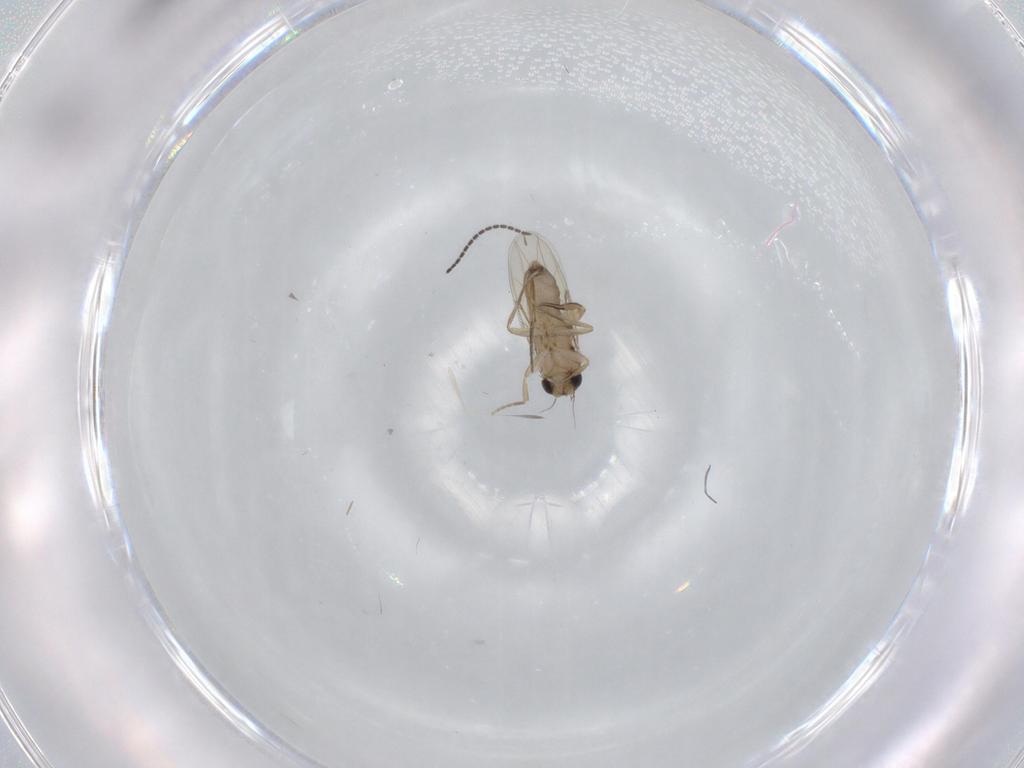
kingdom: Animalia
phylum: Arthropoda
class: Insecta
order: Diptera
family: Phoridae
